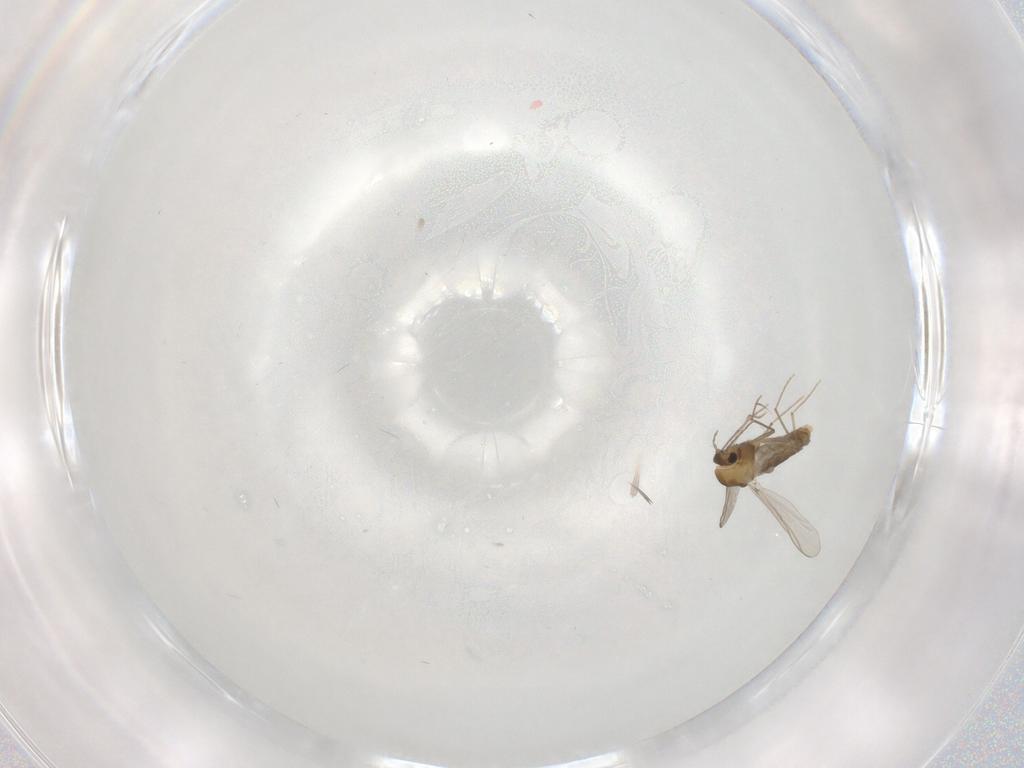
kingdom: Animalia
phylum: Arthropoda
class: Insecta
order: Diptera
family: Chironomidae
